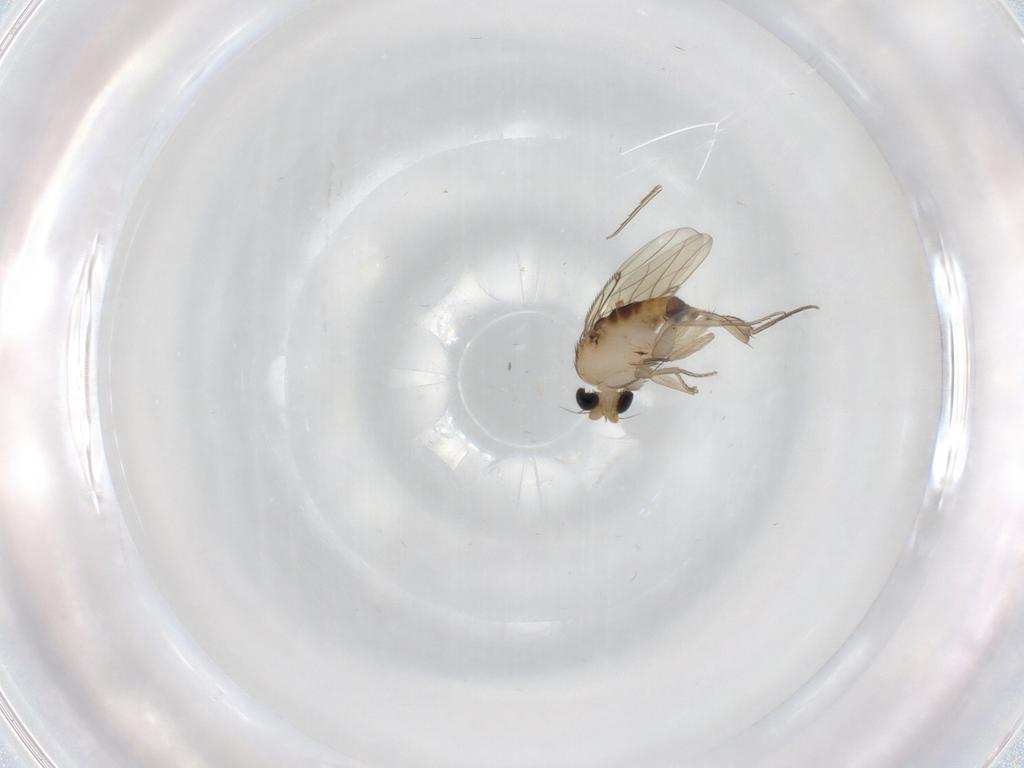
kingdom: Animalia
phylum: Arthropoda
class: Insecta
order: Diptera
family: Phoridae
